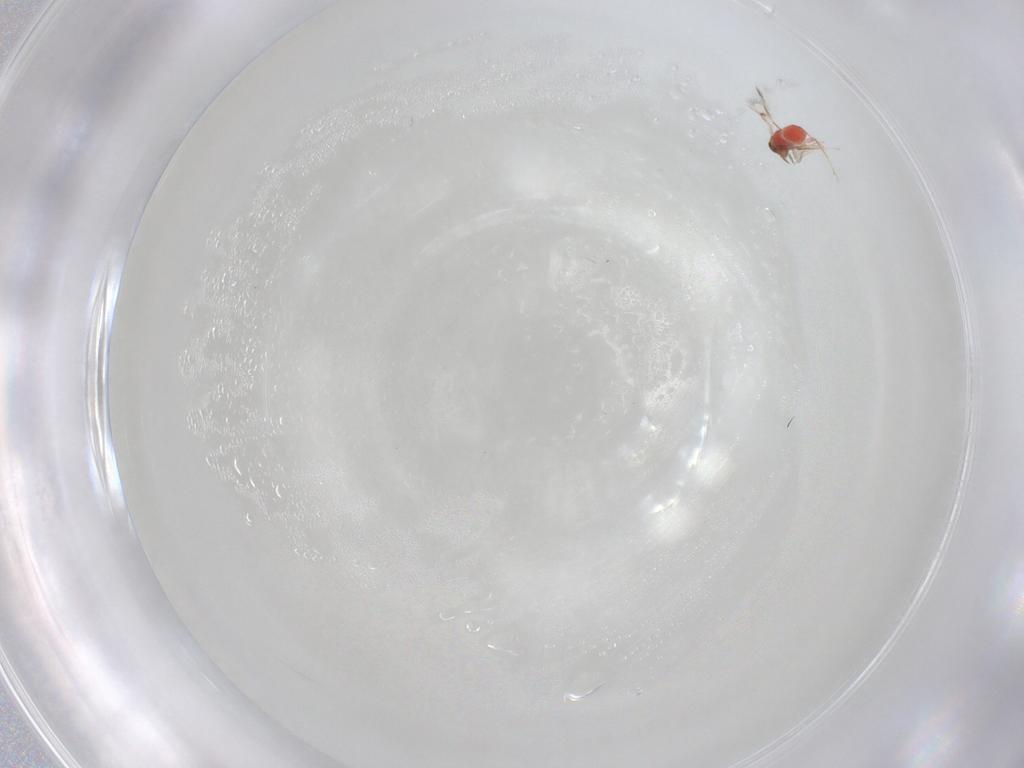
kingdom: Animalia
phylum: Arthropoda
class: Insecta
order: Hymenoptera
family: Trichogrammatidae
